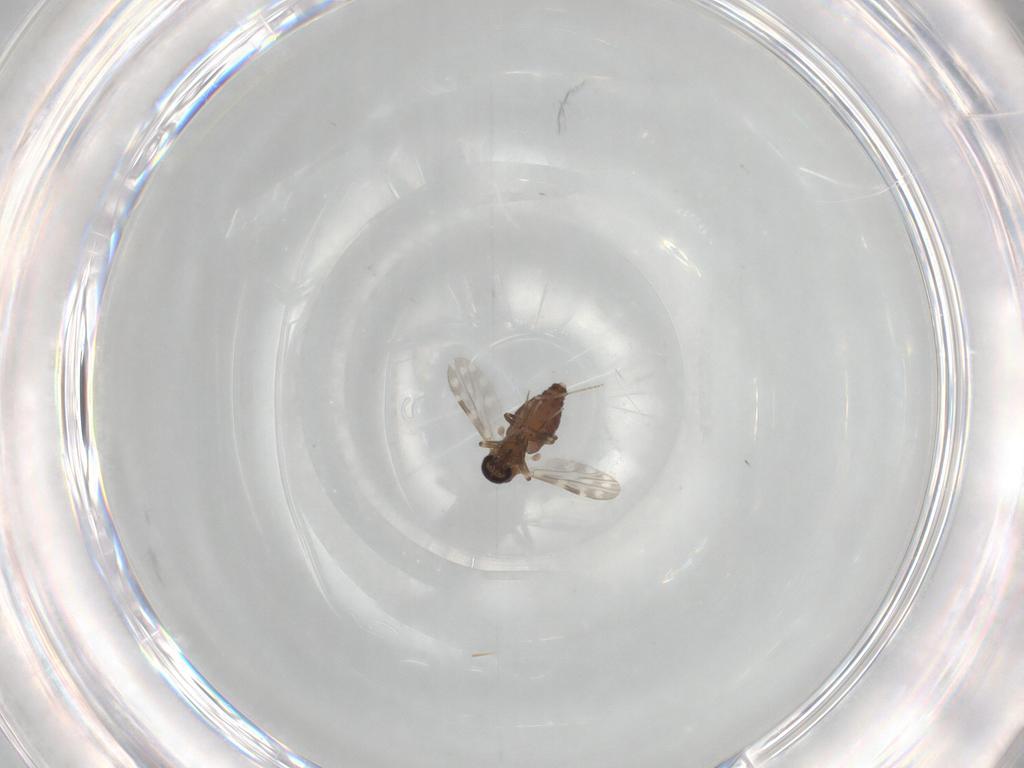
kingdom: Animalia
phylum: Arthropoda
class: Insecta
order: Diptera
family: Ceratopogonidae
